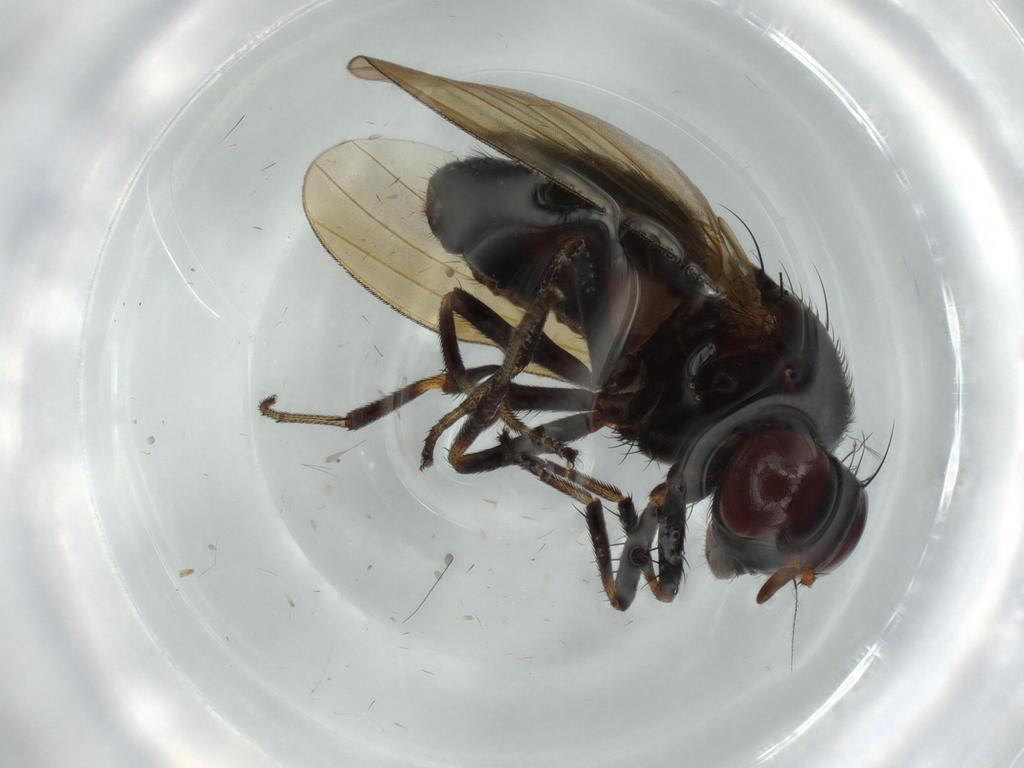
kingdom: Animalia
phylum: Arthropoda
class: Insecta
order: Diptera
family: Lauxaniidae
